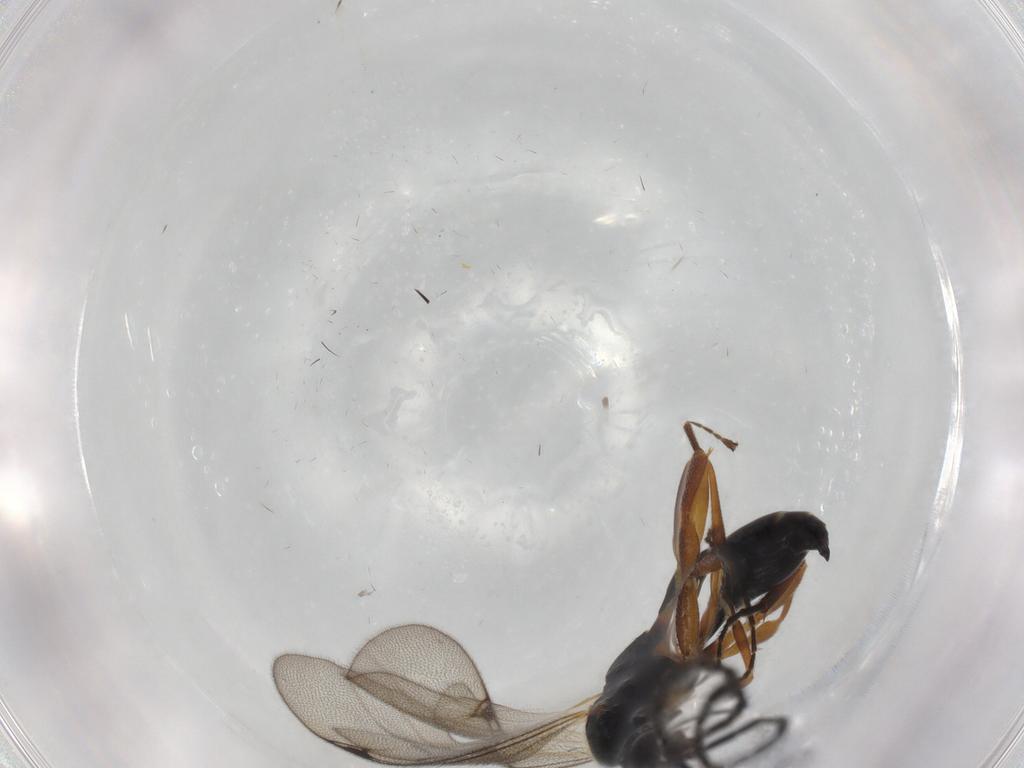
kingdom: Animalia
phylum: Arthropoda
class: Insecta
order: Hymenoptera
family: Proctotrupidae
